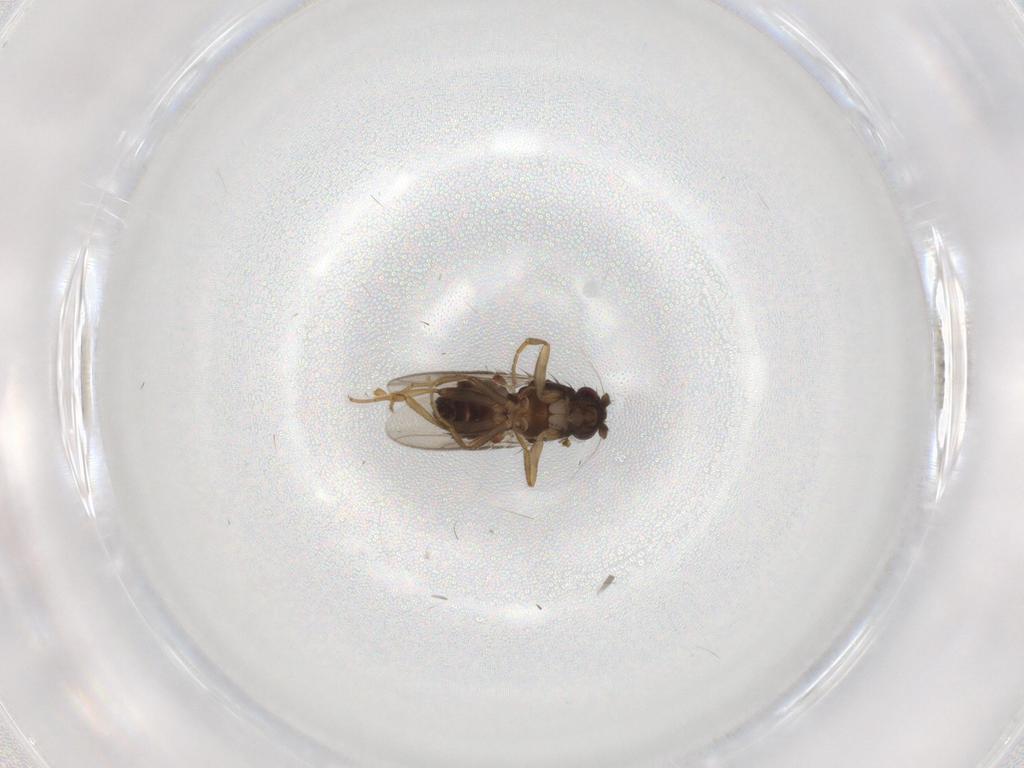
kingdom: Animalia
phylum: Arthropoda
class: Insecta
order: Diptera
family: Sphaeroceridae
